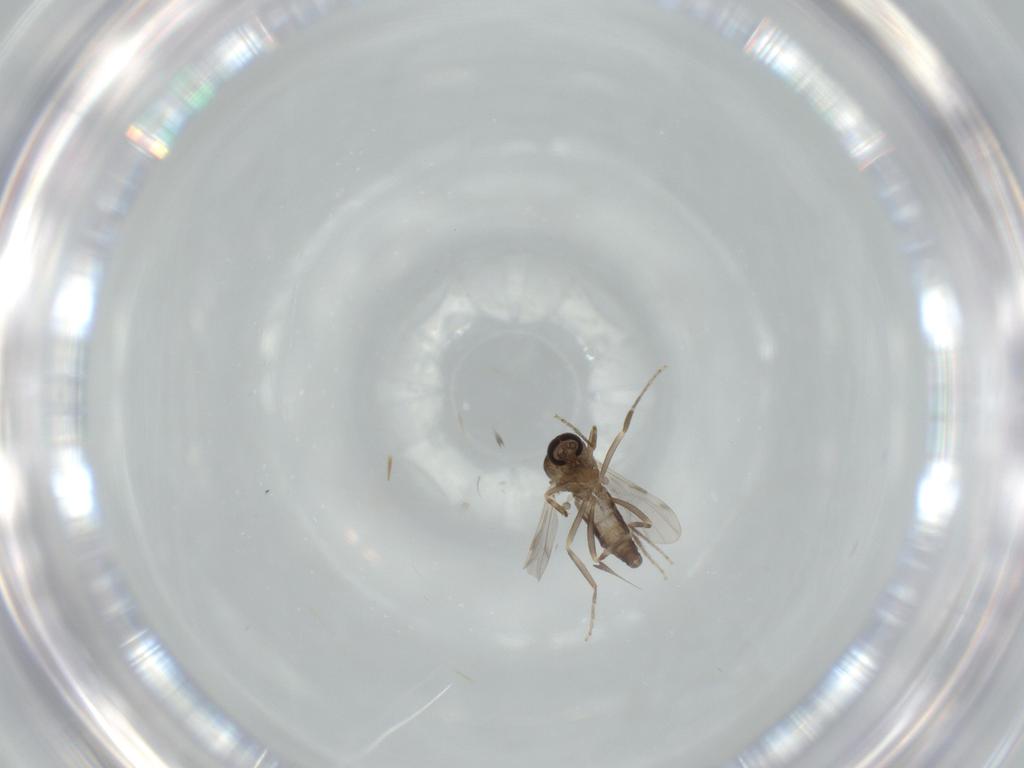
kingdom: Animalia
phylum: Arthropoda
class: Insecta
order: Diptera
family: Ceratopogonidae
